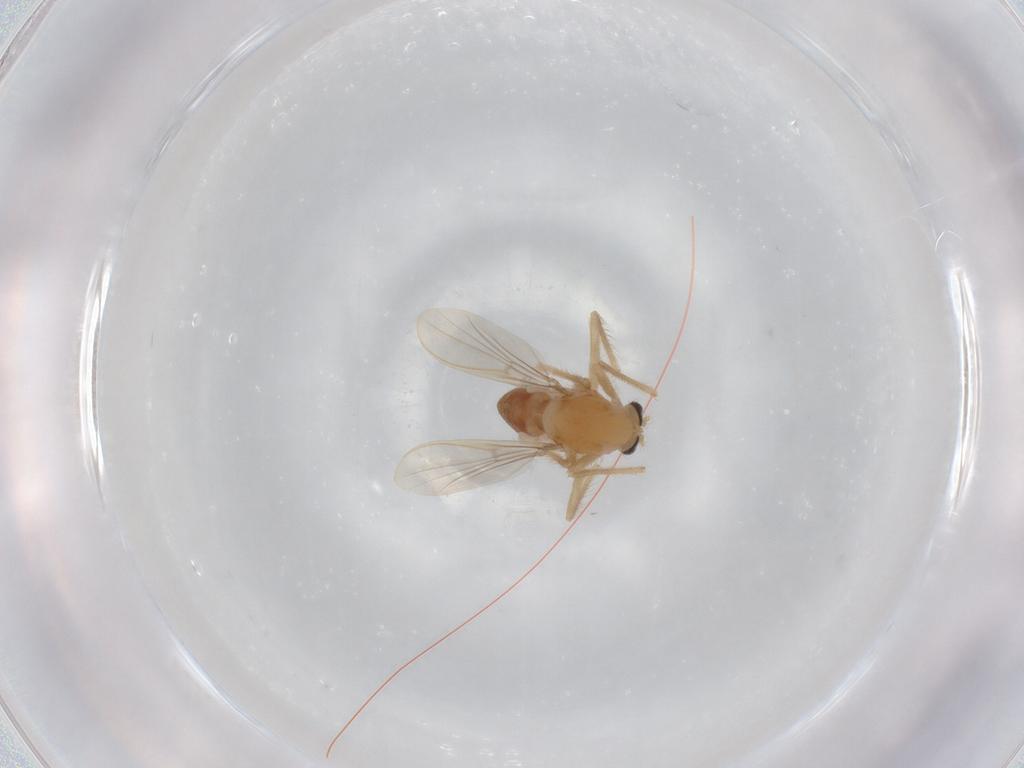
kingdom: Animalia
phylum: Arthropoda
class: Insecta
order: Diptera
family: Chironomidae
